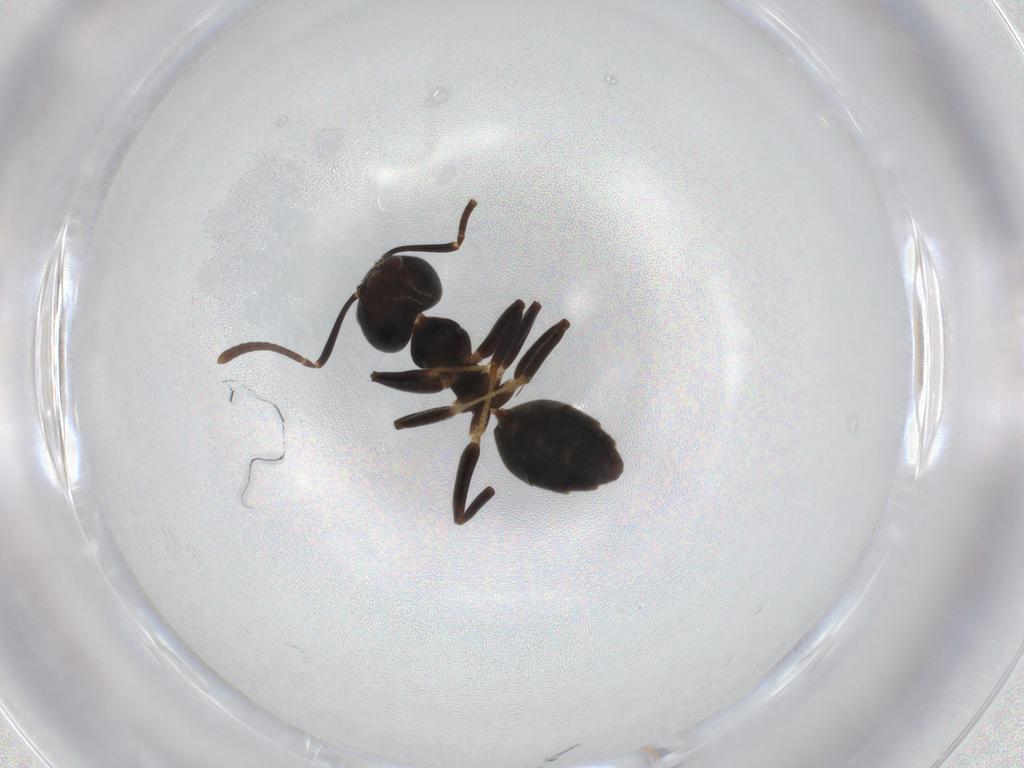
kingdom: Animalia
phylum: Arthropoda
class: Insecta
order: Hymenoptera
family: Formicidae
